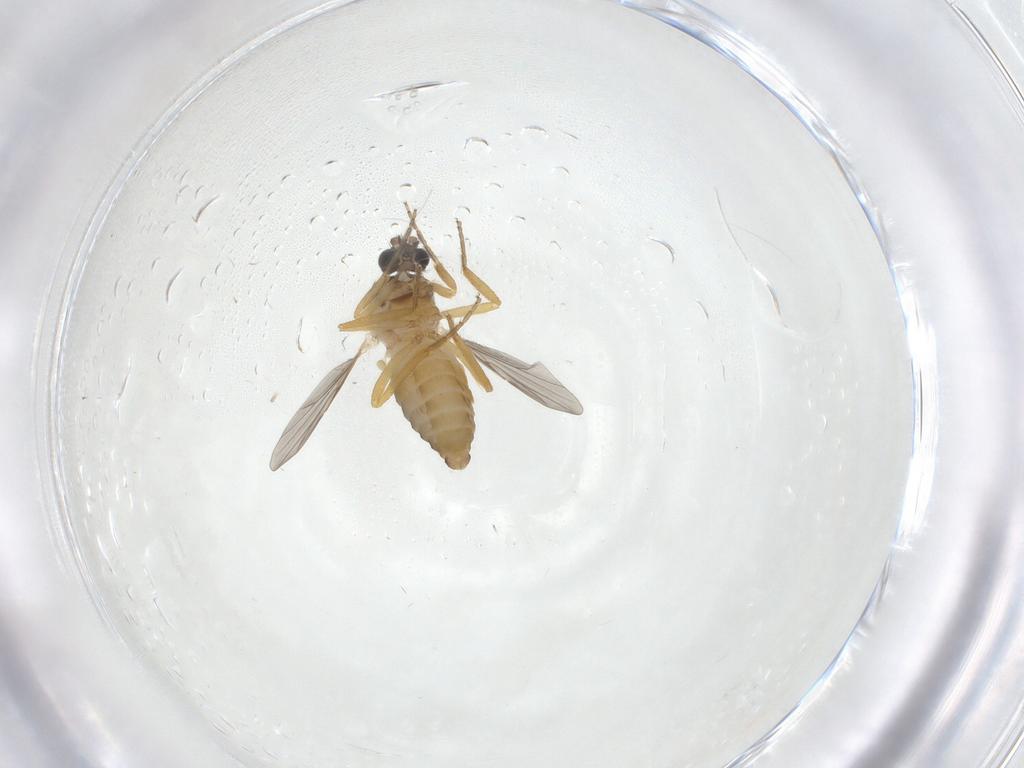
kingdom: Animalia
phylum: Arthropoda
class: Insecta
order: Diptera
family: Ceratopogonidae
